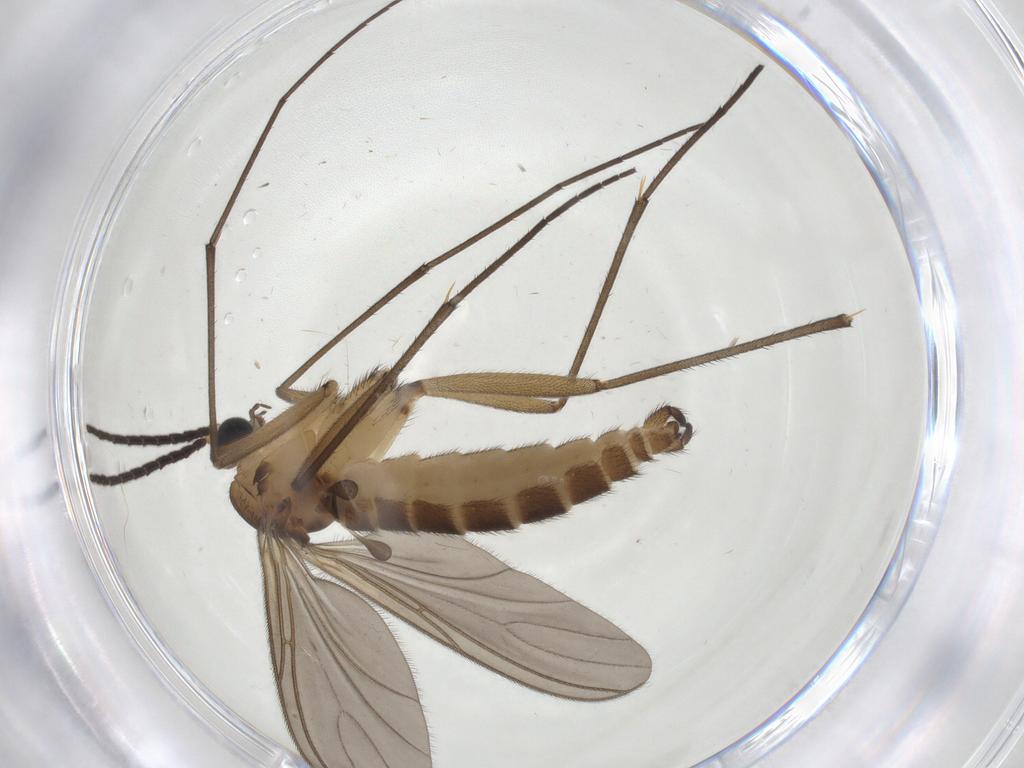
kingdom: Animalia
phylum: Arthropoda
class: Insecta
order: Diptera
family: Sciaridae
